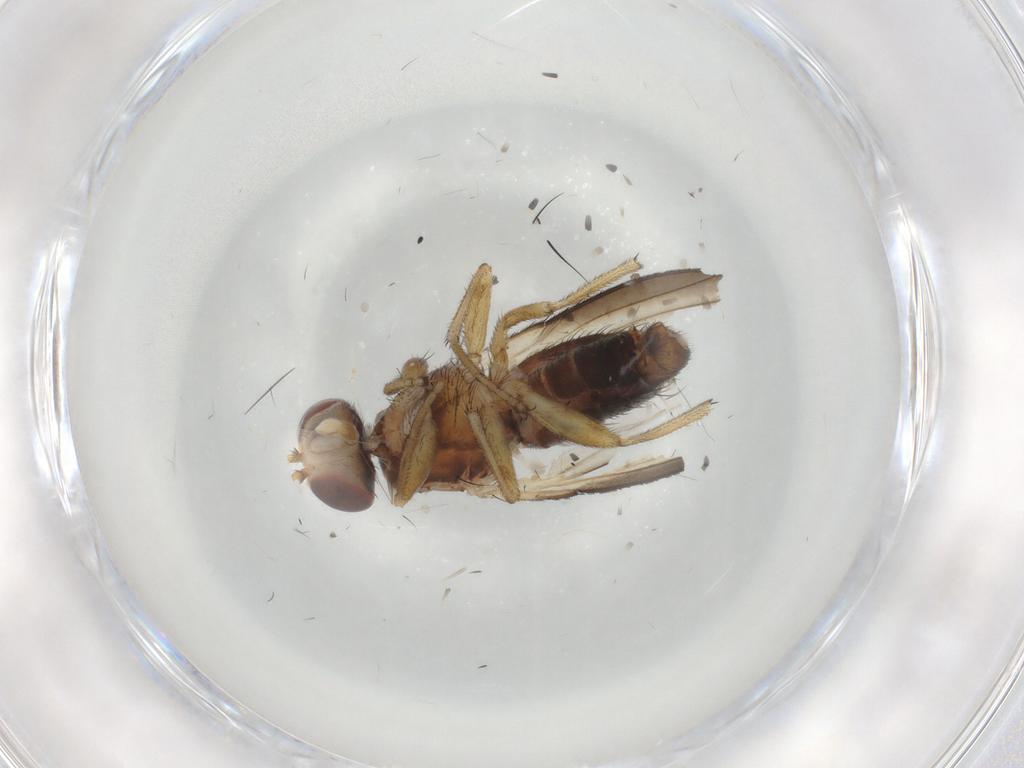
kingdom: Animalia
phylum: Arthropoda
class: Insecta
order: Diptera
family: Heleomyzidae
